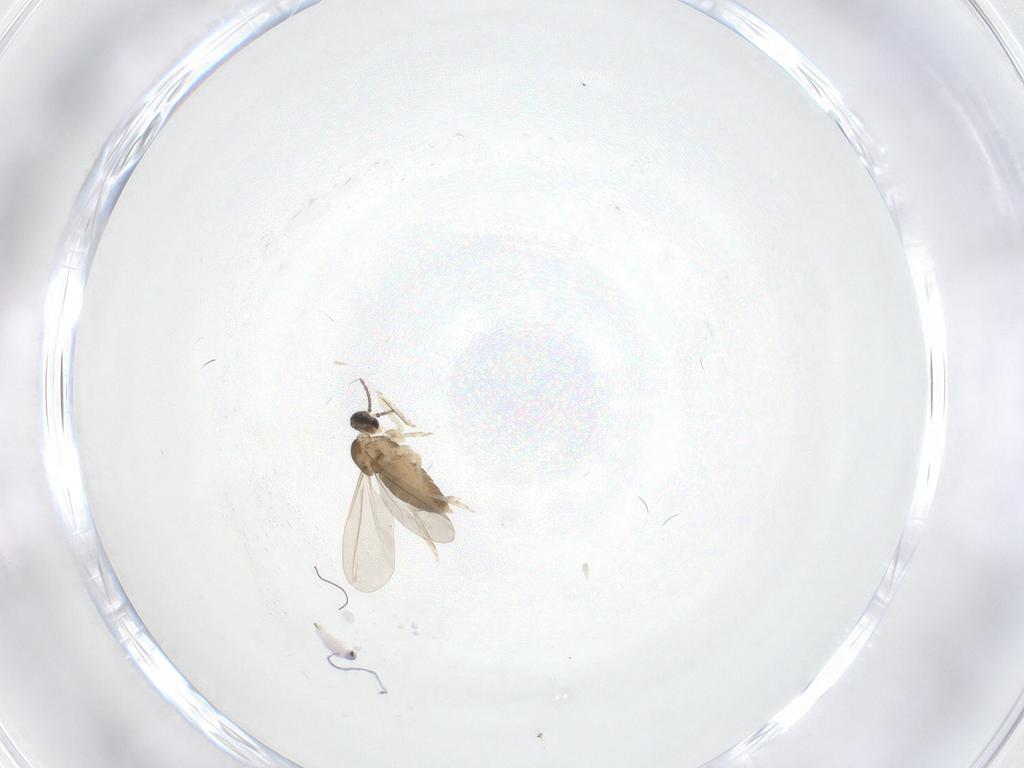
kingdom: Animalia
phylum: Arthropoda
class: Insecta
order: Diptera
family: Cecidomyiidae
